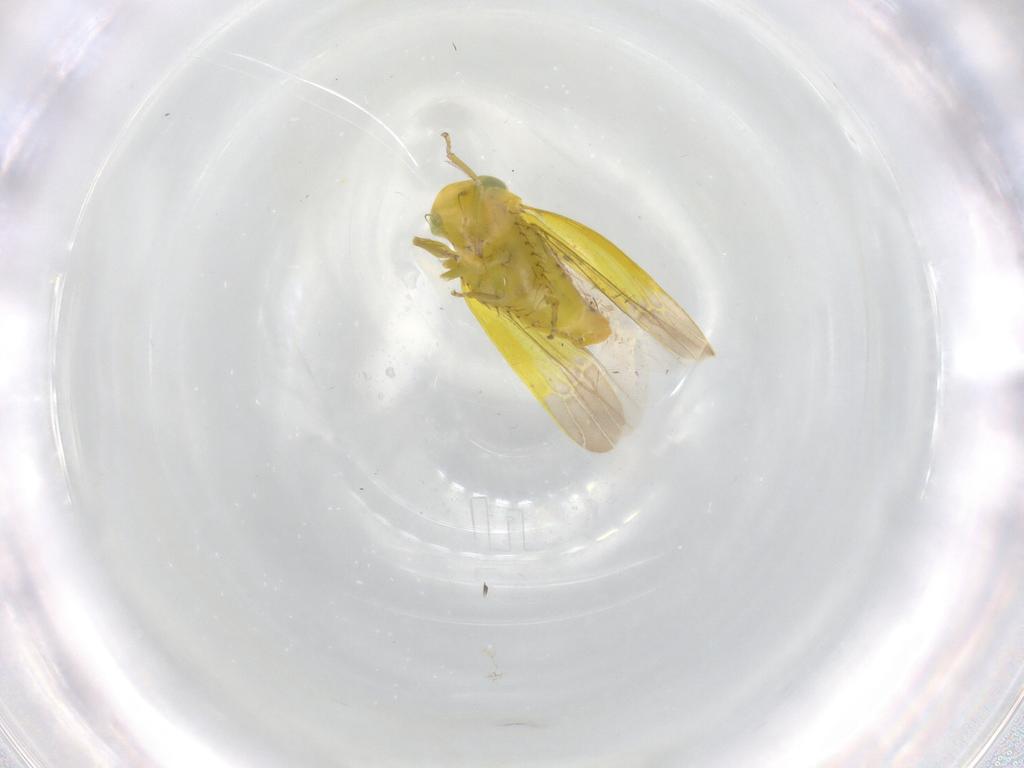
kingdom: Animalia
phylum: Arthropoda
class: Insecta
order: Hemiptera
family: Cicadellidae
